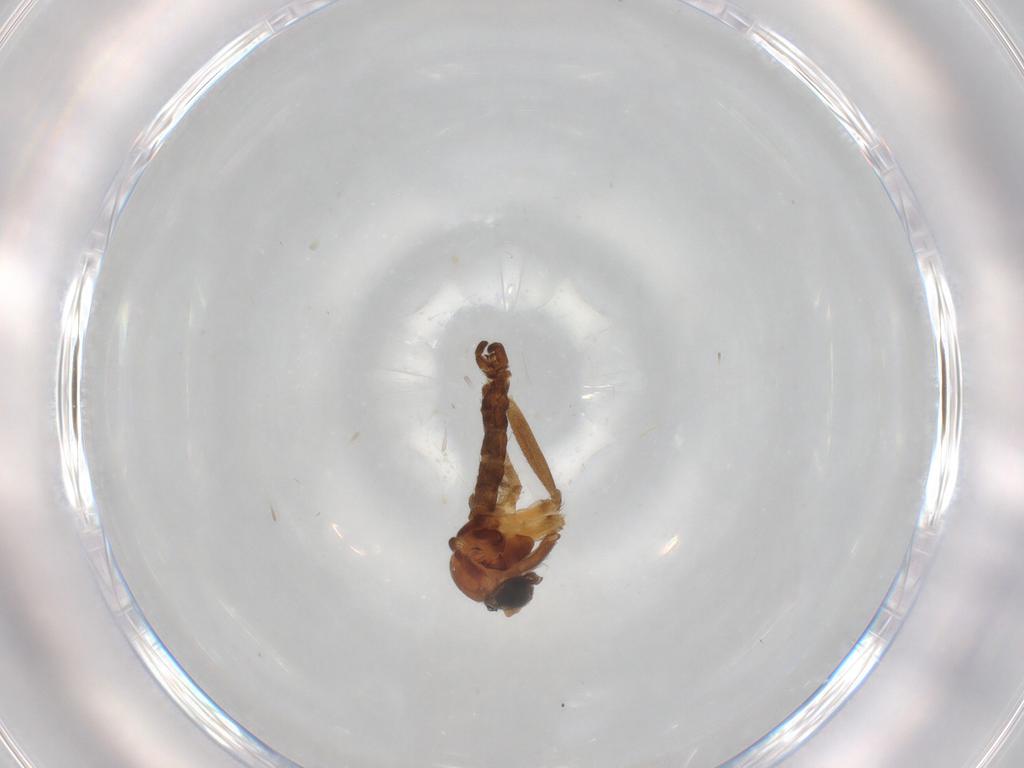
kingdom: Animalia
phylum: Arthropoda
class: Insecta
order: Diptera
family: Sciaridae
